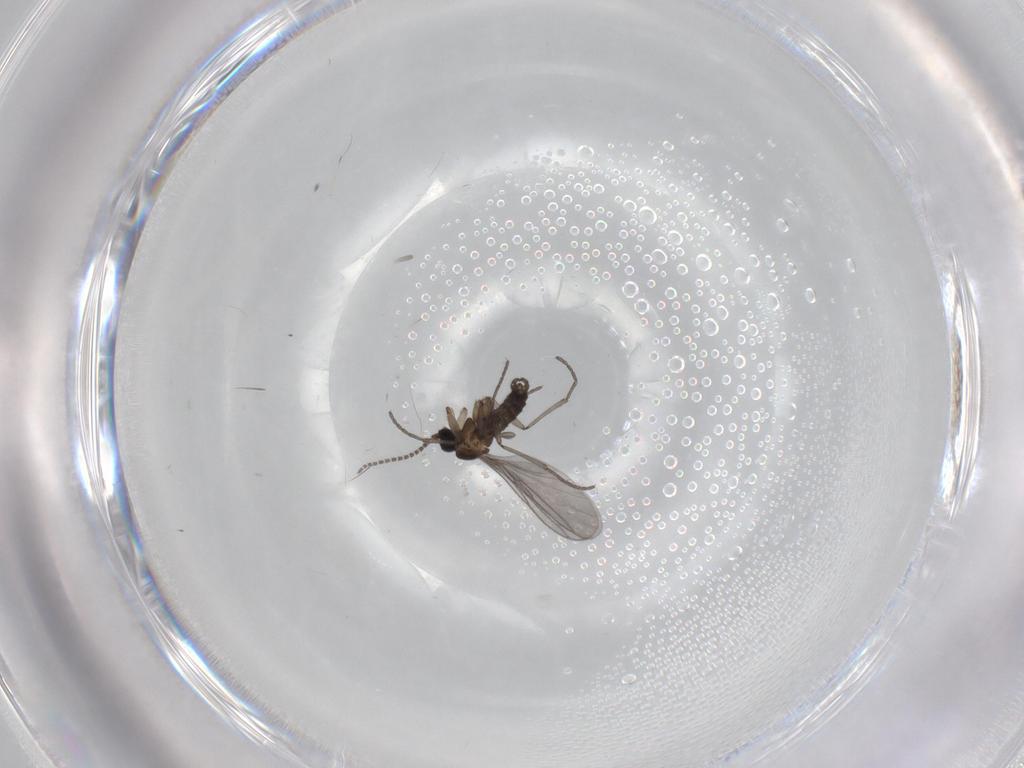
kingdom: Animalia
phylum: Arthropoda
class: Insecta
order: Diptera
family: Sciaridae
